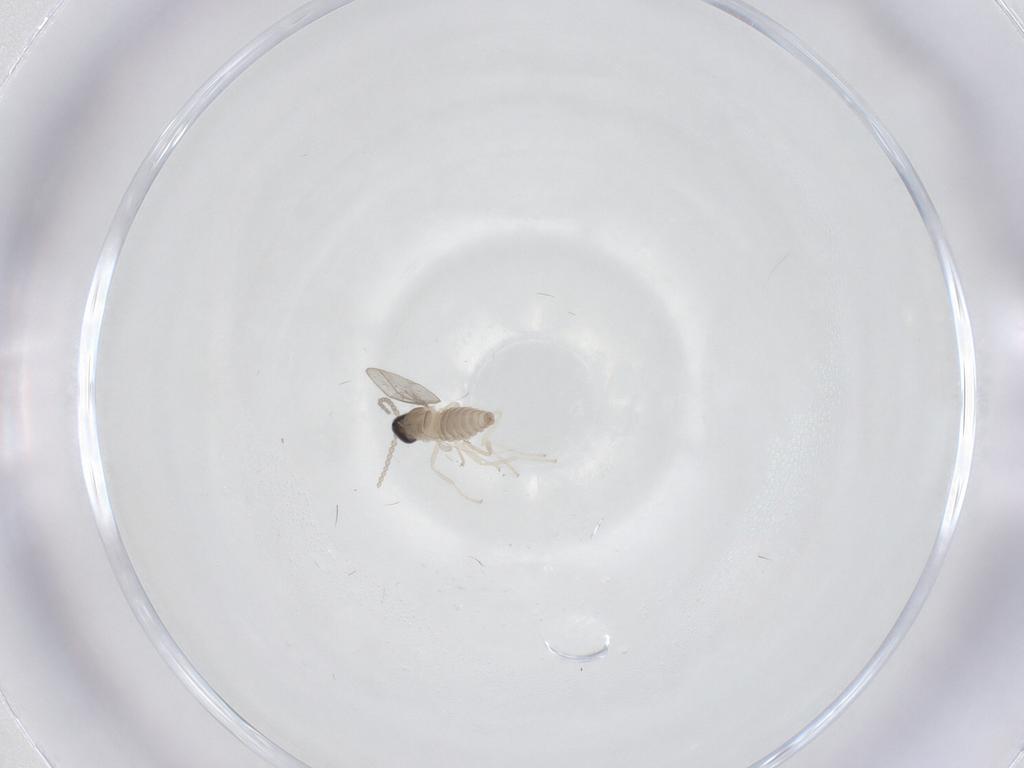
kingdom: Animalia
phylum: Arthropoda
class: Insecta
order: Diptera
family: Cecidomyiidae
